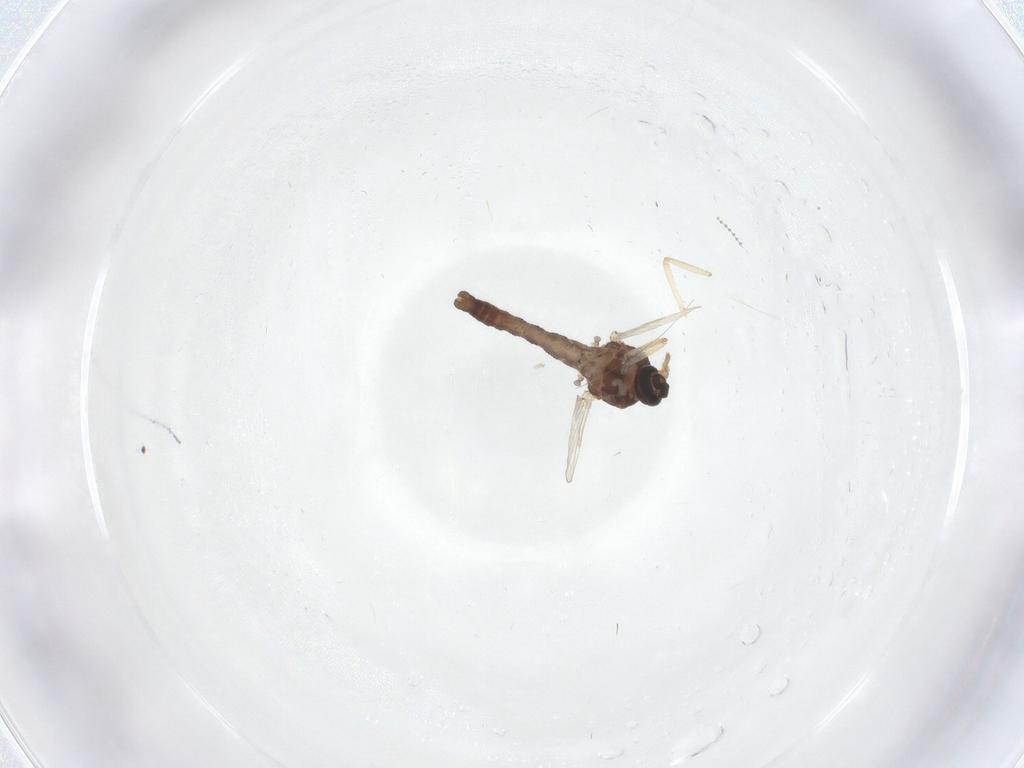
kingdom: Animalia
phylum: Arthropoda
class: Insecta
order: Diptera
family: Ceratopogonidae
